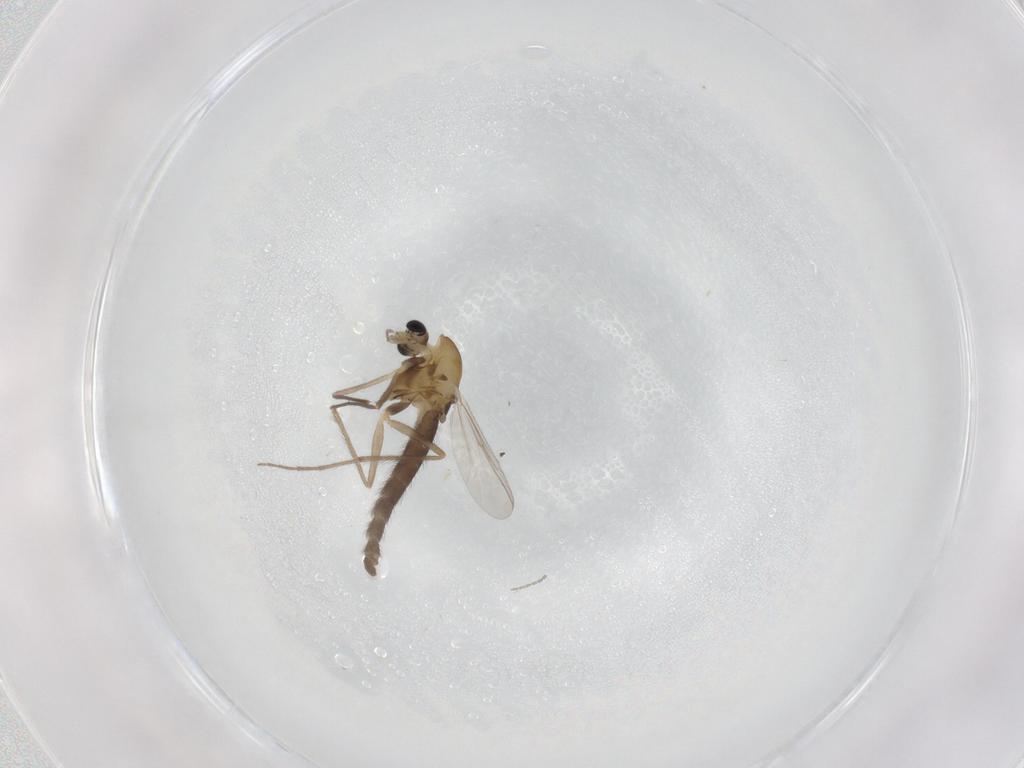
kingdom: Animalia
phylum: Arthropoda
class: Insecta
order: Diptera
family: Chironomidae
